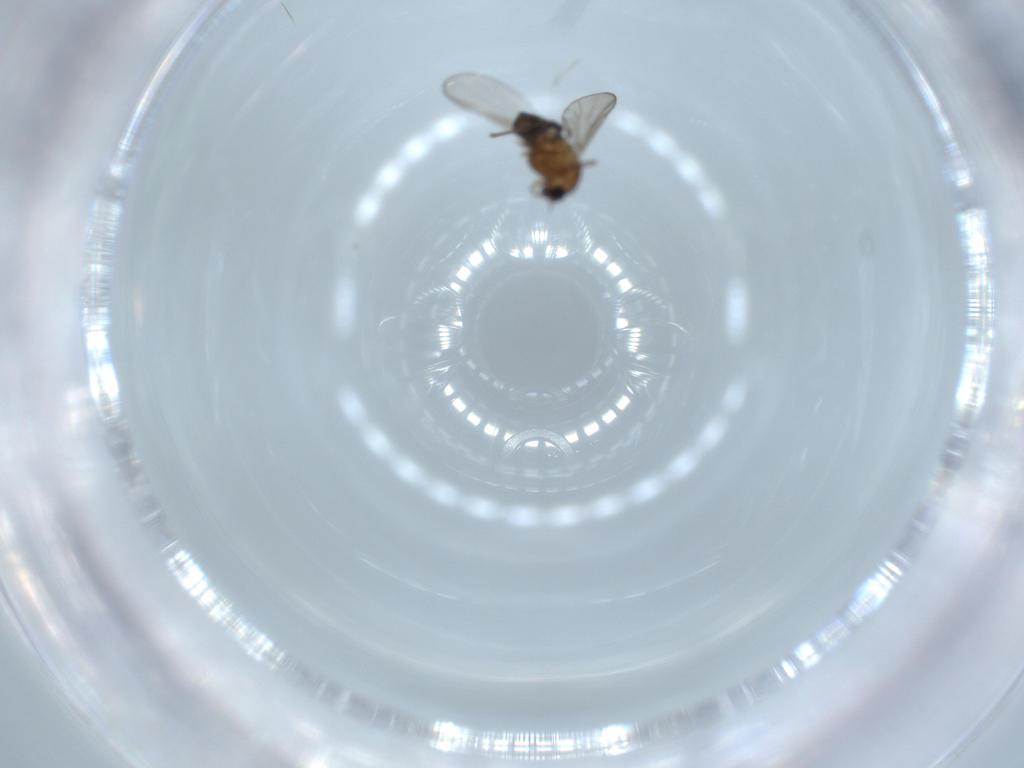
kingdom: Animalia
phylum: Arthropoda
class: Insecta
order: Diptera
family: Chironomidae
